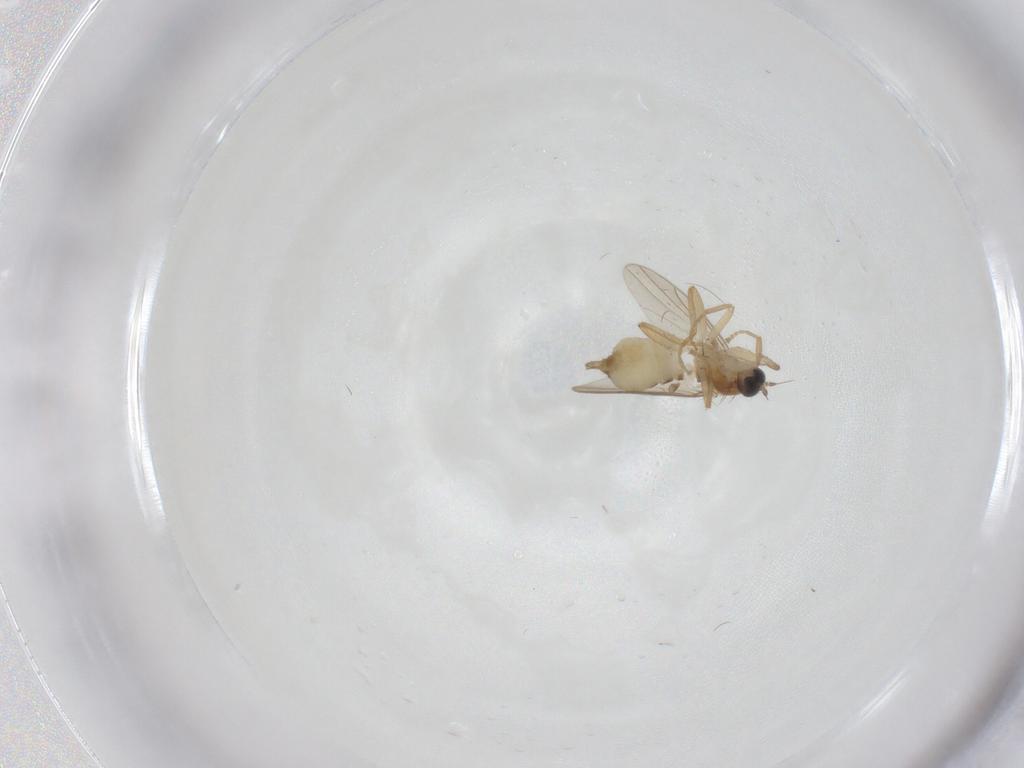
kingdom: Animalia
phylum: Arthropoda
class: Insecta
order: Diptera
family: Hybotidae
